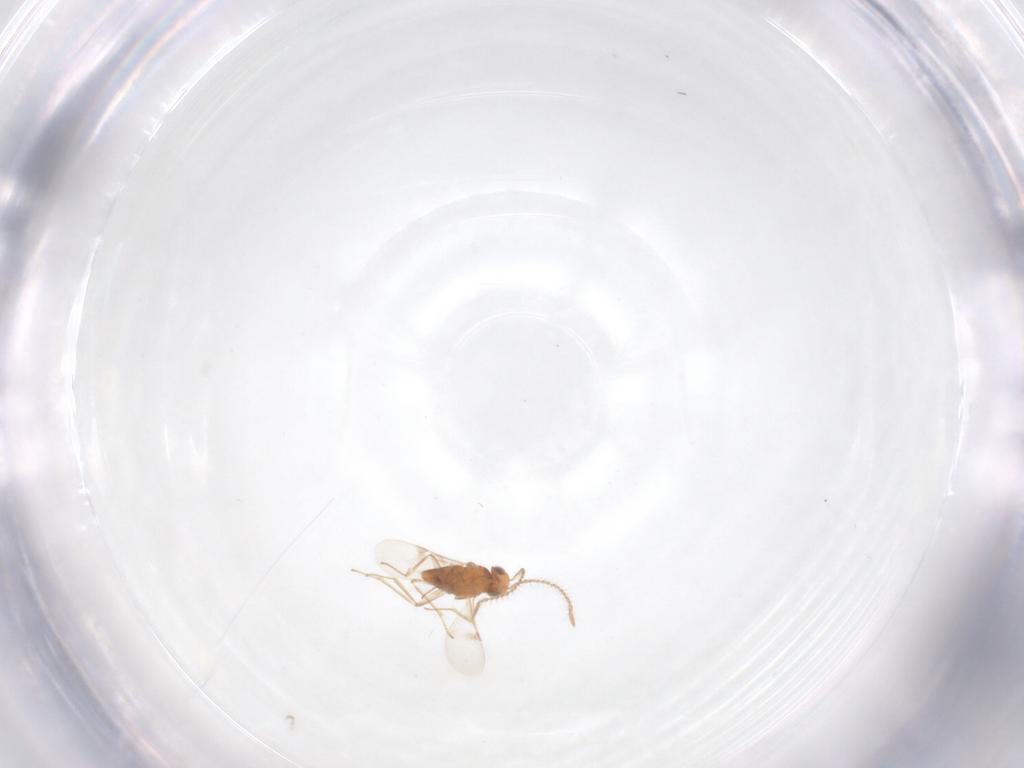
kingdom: Animalia
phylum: Arthropoda
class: Insecta
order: Hymenoptera
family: Encyrtidae
